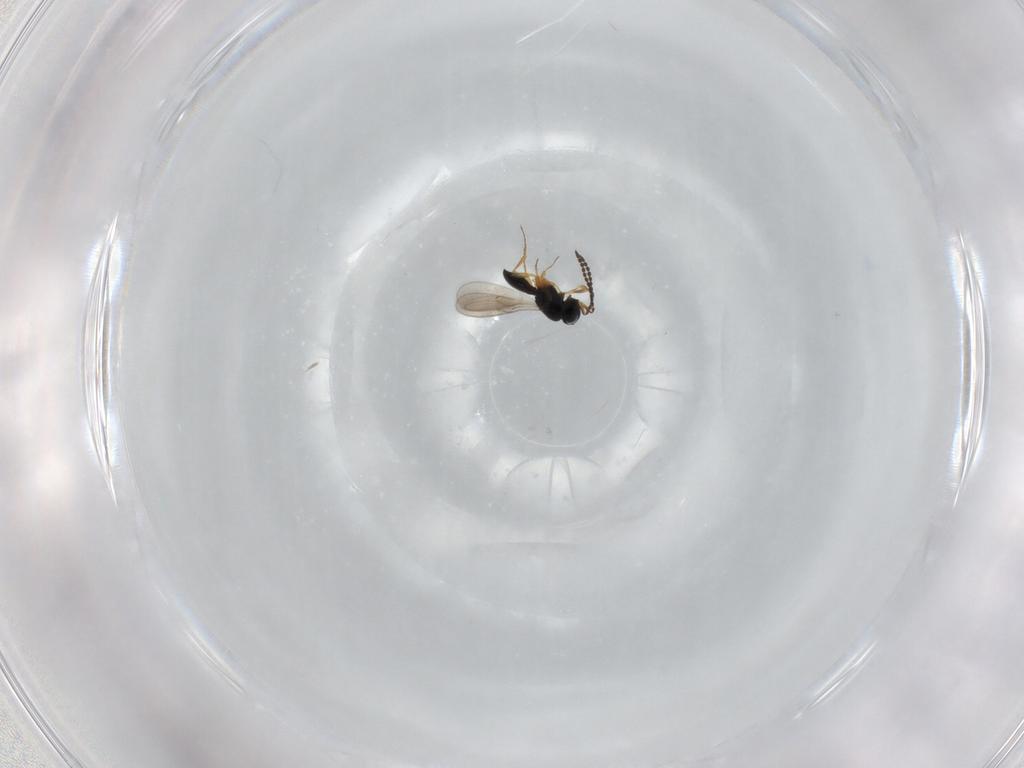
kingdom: Animalia
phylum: Arthropoda
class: Insecta
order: Hymenoptera
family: Scelionidae
